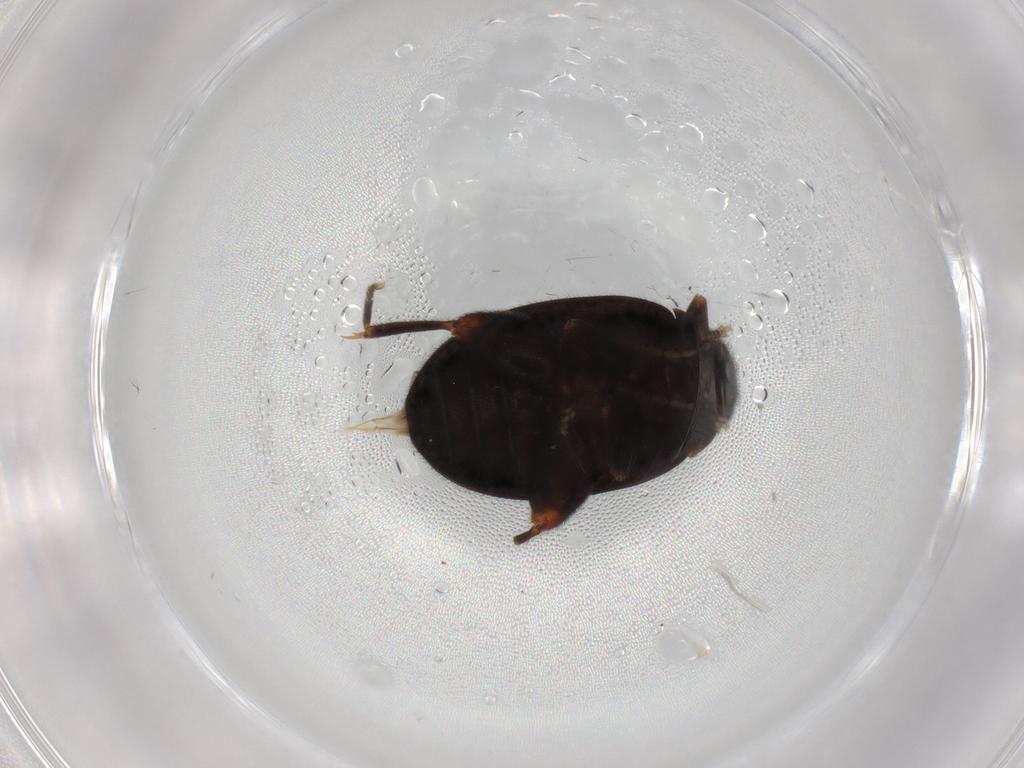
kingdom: Animalia
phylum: Arthropoda
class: Insecta
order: Coleoptera
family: Scirtidae
